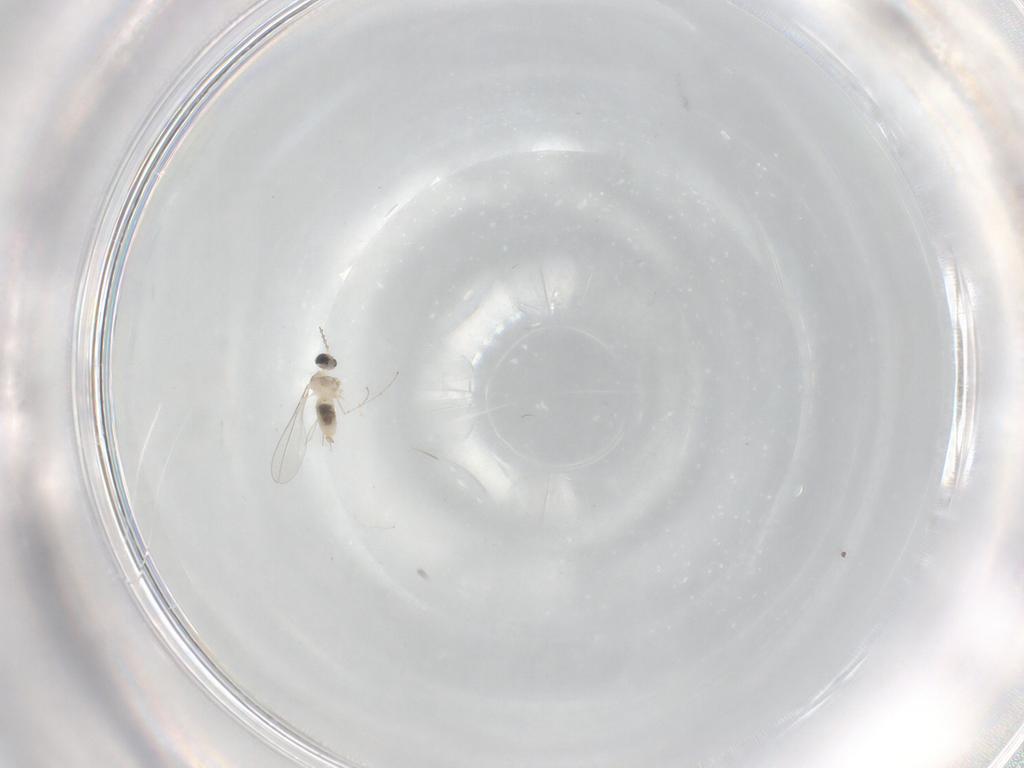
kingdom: Animalia
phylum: Arthropoda
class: Insecta
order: Diptera
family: Cecidomyiidae
